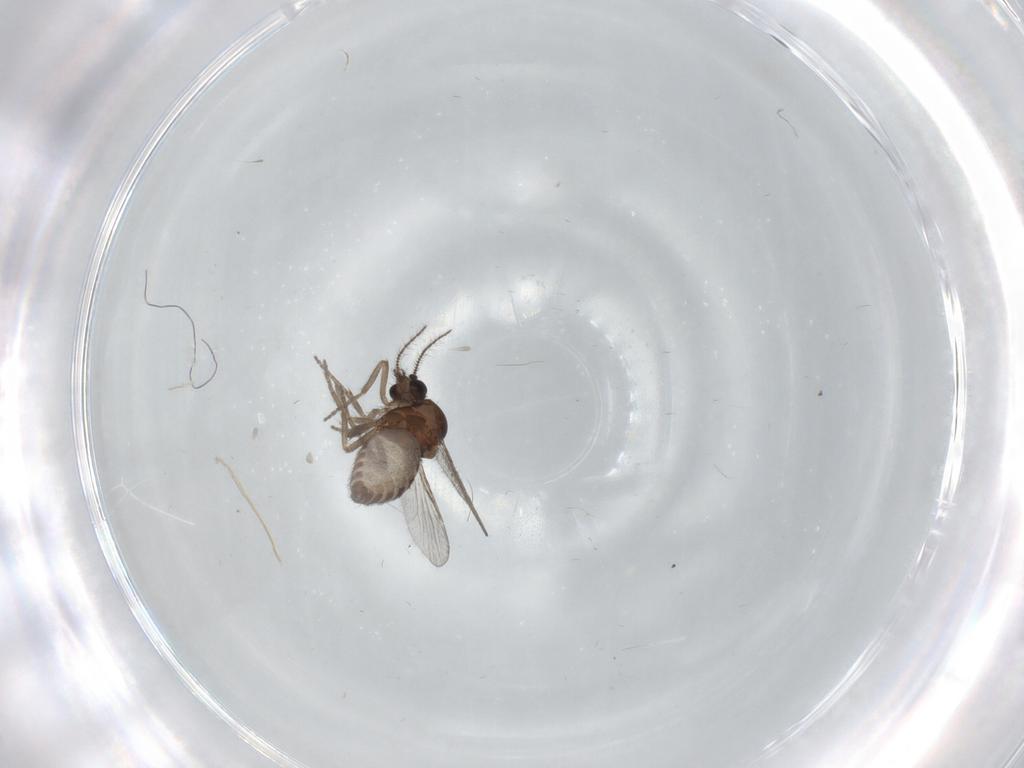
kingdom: Animalia
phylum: Arthropoda
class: Insecta
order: Diptera
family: Ceratopogonidae
